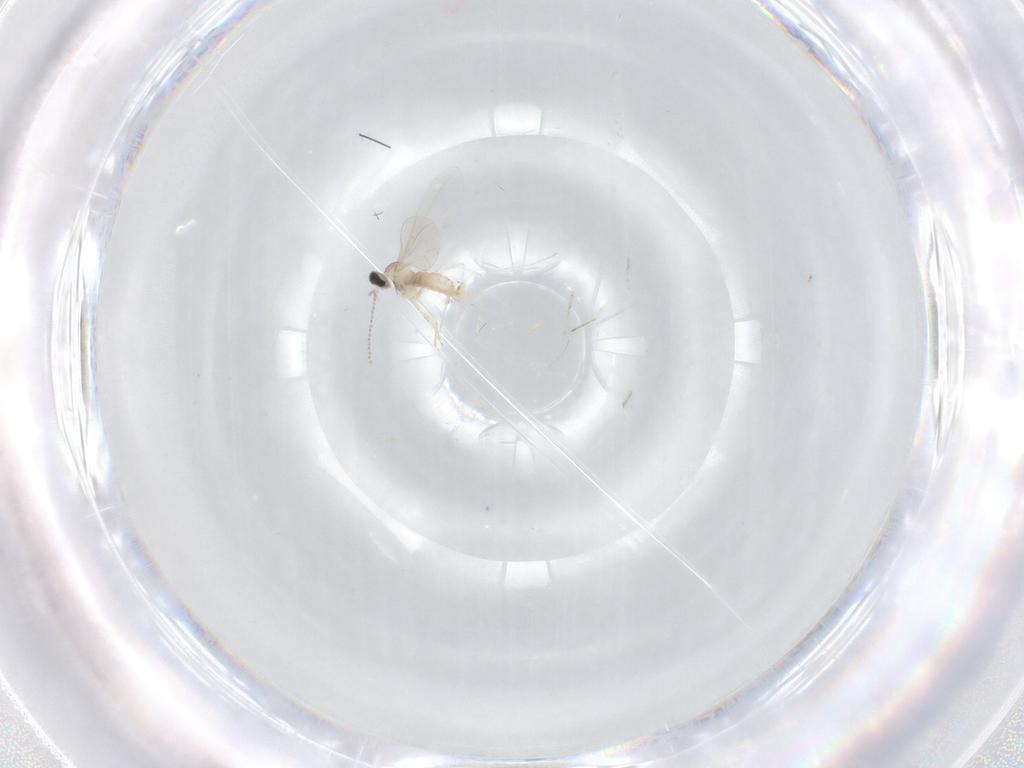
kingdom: Animalia
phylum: Arthropoda
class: Insecta
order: Diptera
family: Cecidomyiidae
